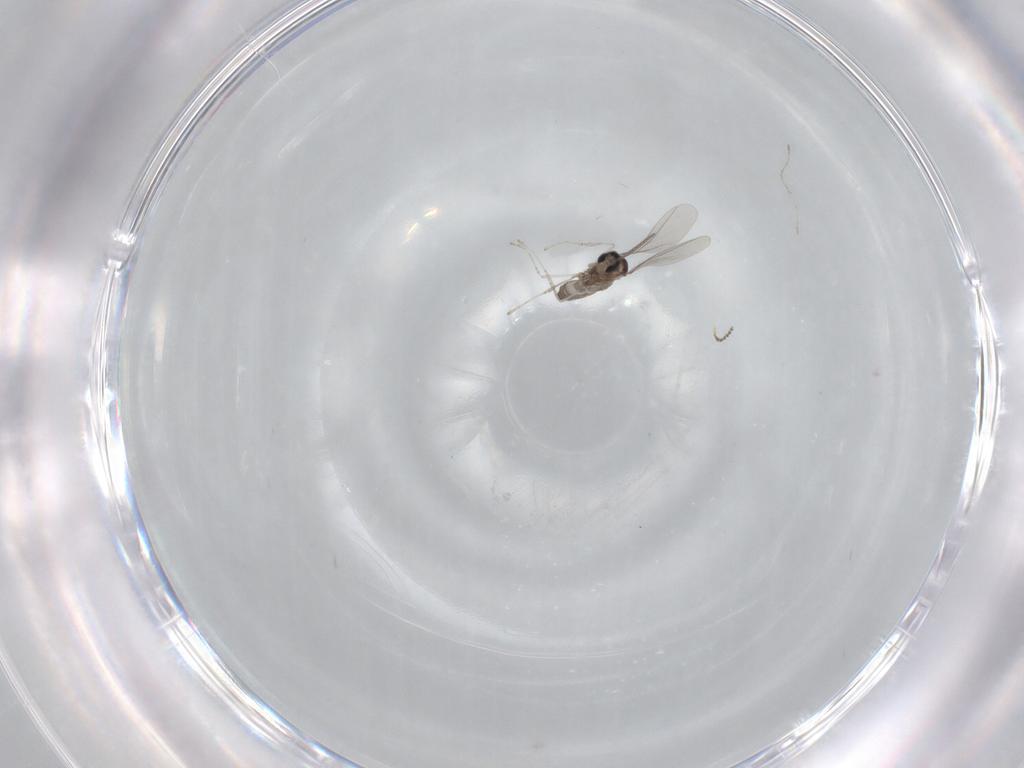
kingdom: Animalia
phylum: Arthropoda
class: Insecta
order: Diptera
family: Cecidomyiidae
